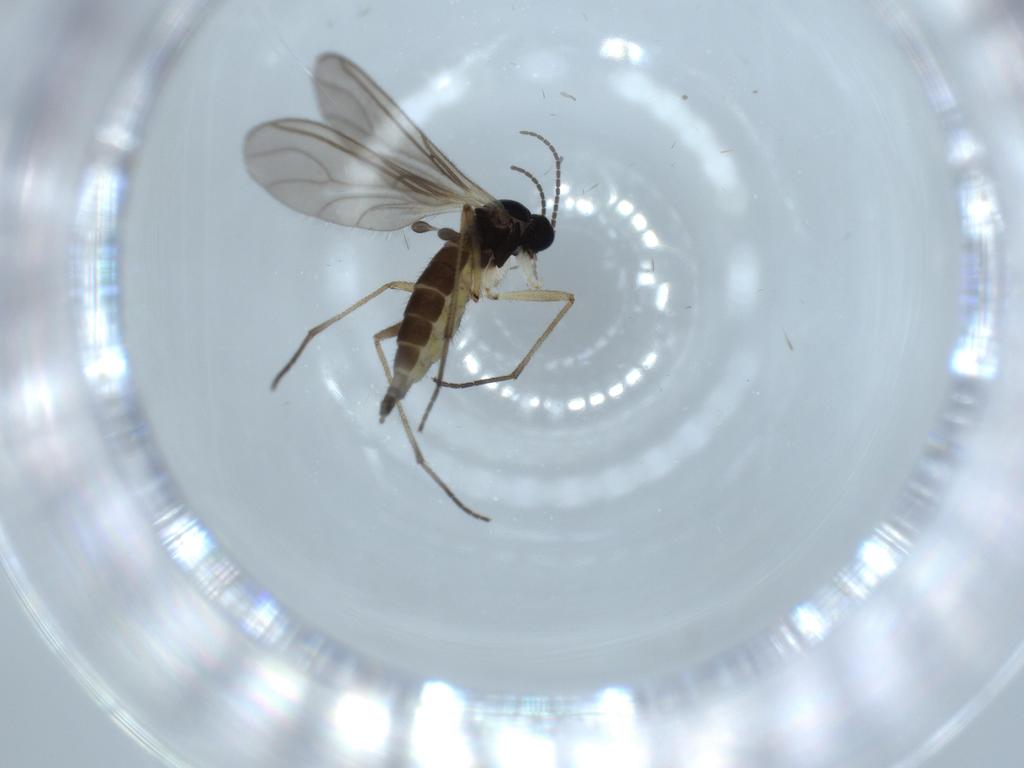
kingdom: Animalia
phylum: Arthropoda
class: Insecta
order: Diptera
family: Sciaridae
